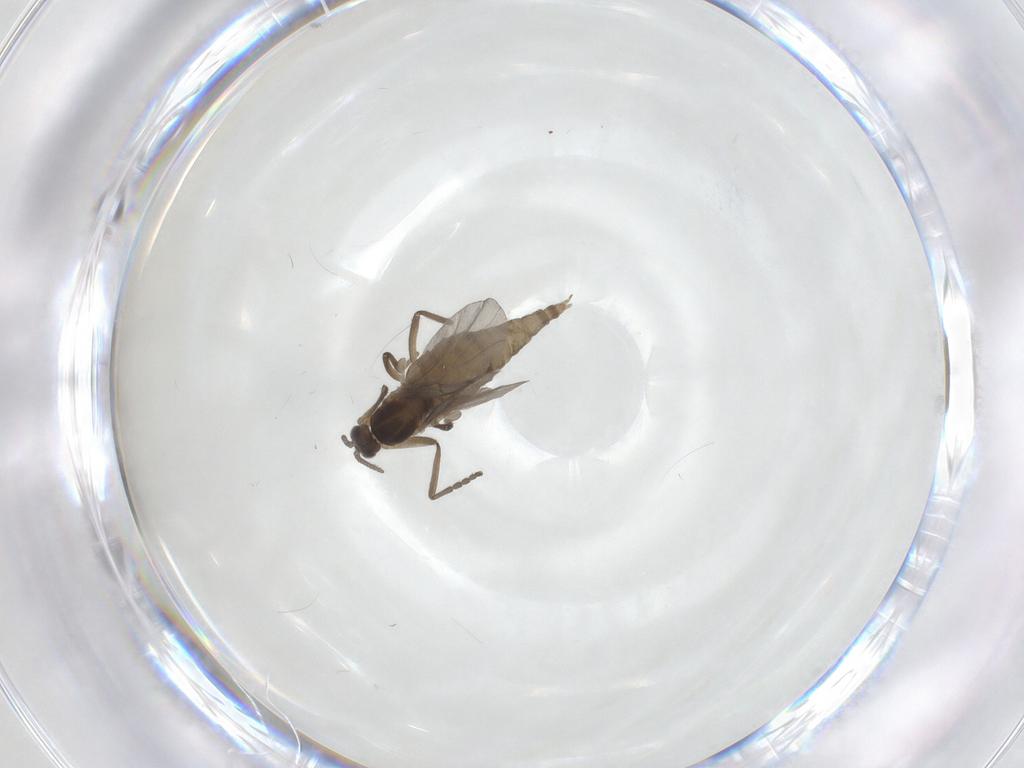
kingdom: Animalia
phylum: Arthropoda
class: Insecta
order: Diptera
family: Cecidomyiidae
